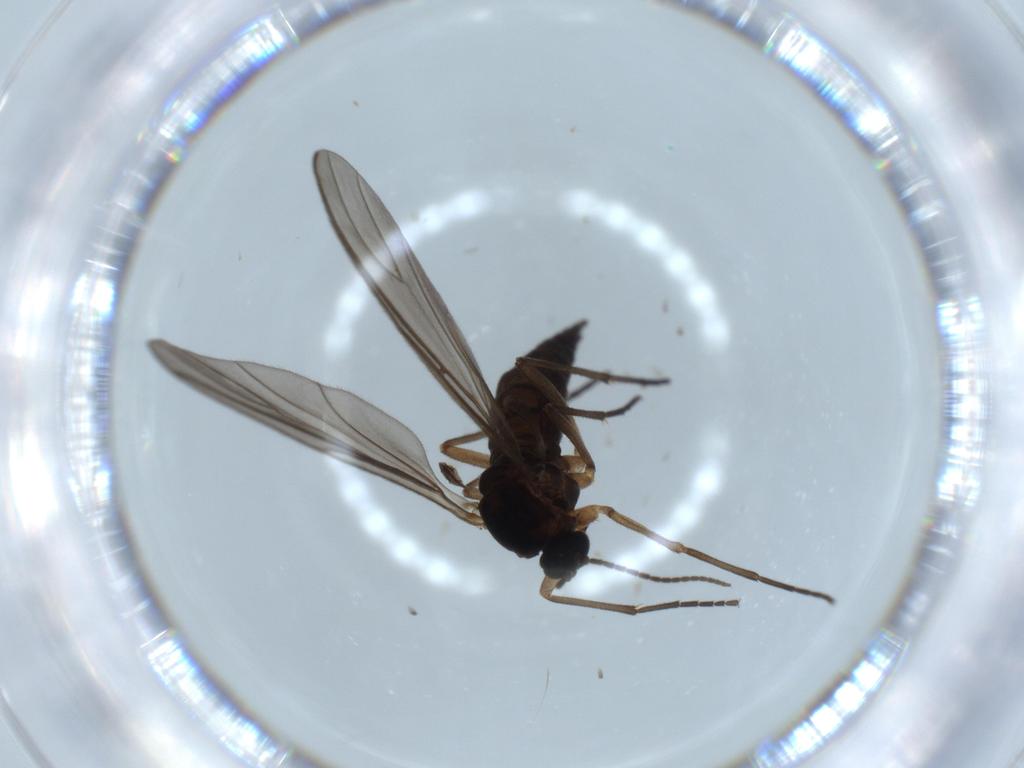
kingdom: Animalia
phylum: Arthropoda
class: Insecta
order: Diptera
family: Sciaridae
